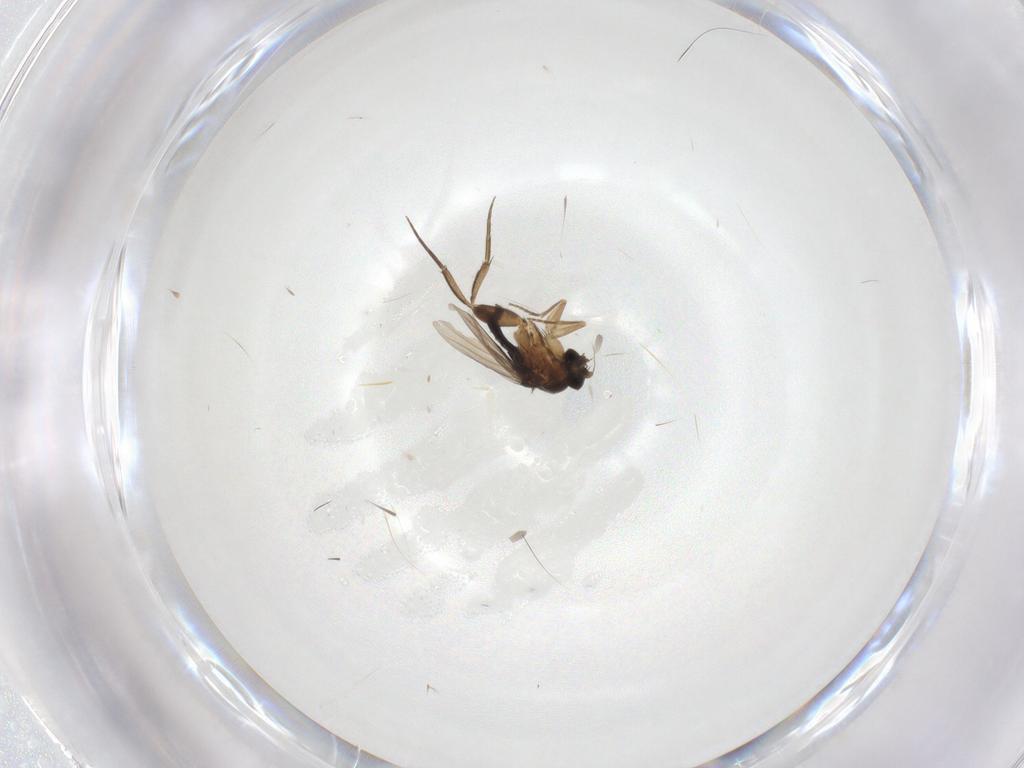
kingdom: Animalia
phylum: Arthropoda
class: Insecta
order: Diptera
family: Phoridae
